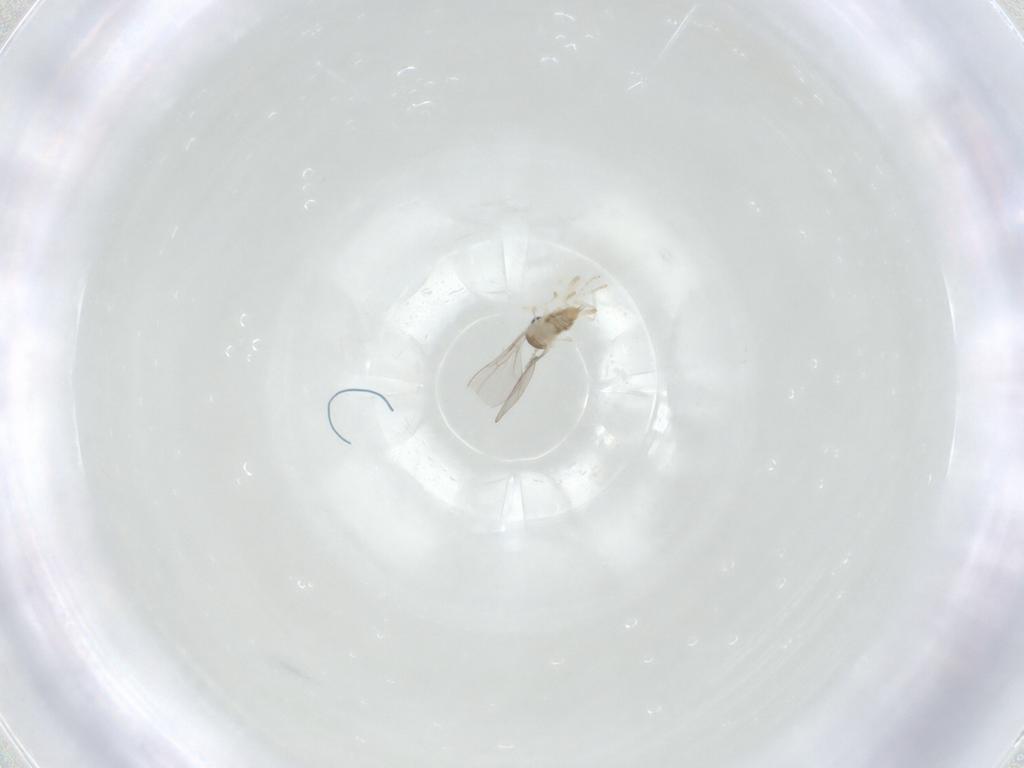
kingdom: Animalia
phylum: Arthropoda
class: Insecta
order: Diptera
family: Cecidomyiidae
